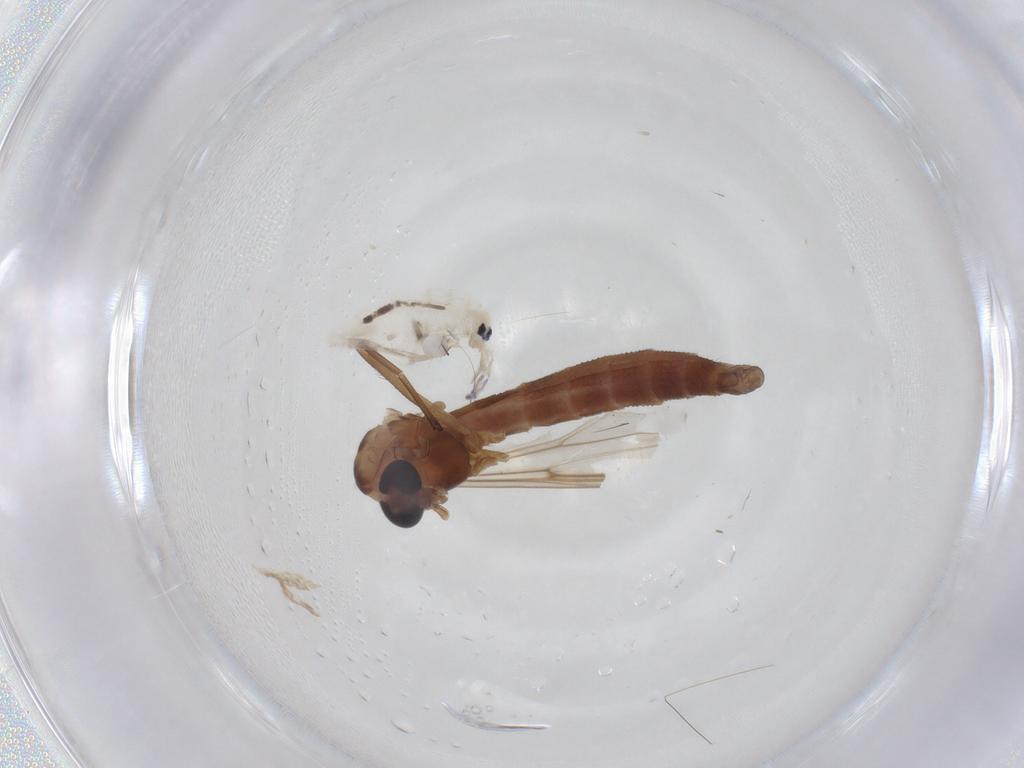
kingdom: Animalia
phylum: Arthropoda
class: Insecta
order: Diptera
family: Chironomidae
